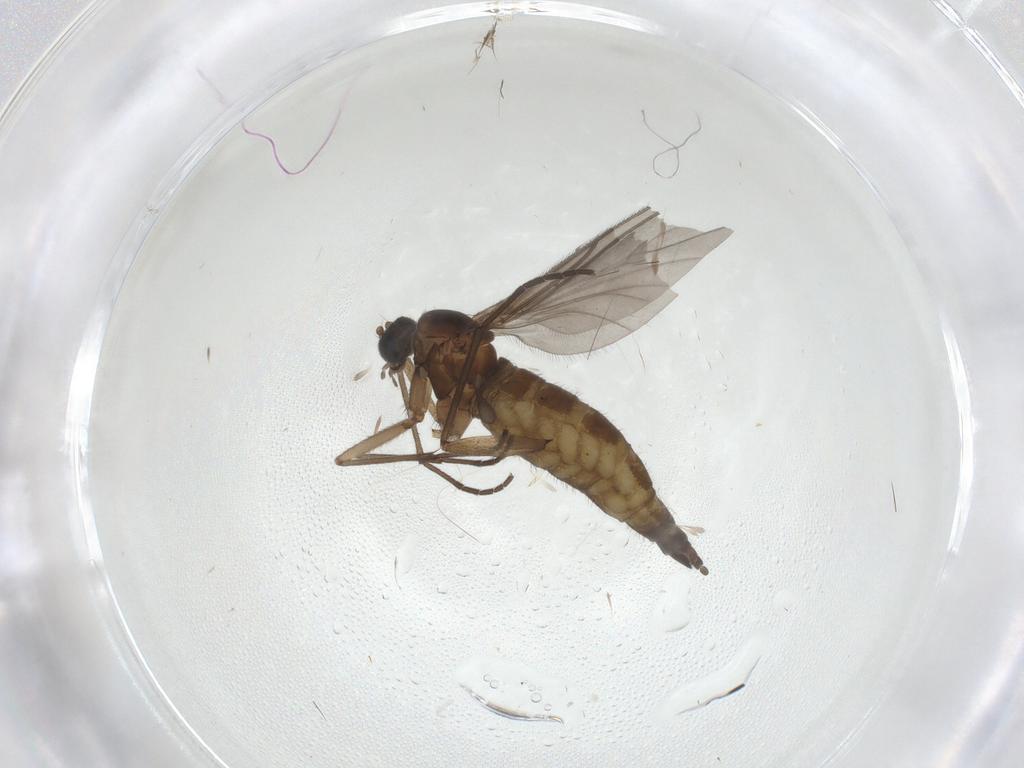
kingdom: Animalia
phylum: Arthropoda
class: Insecta
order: Diptera
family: Sciaridae
